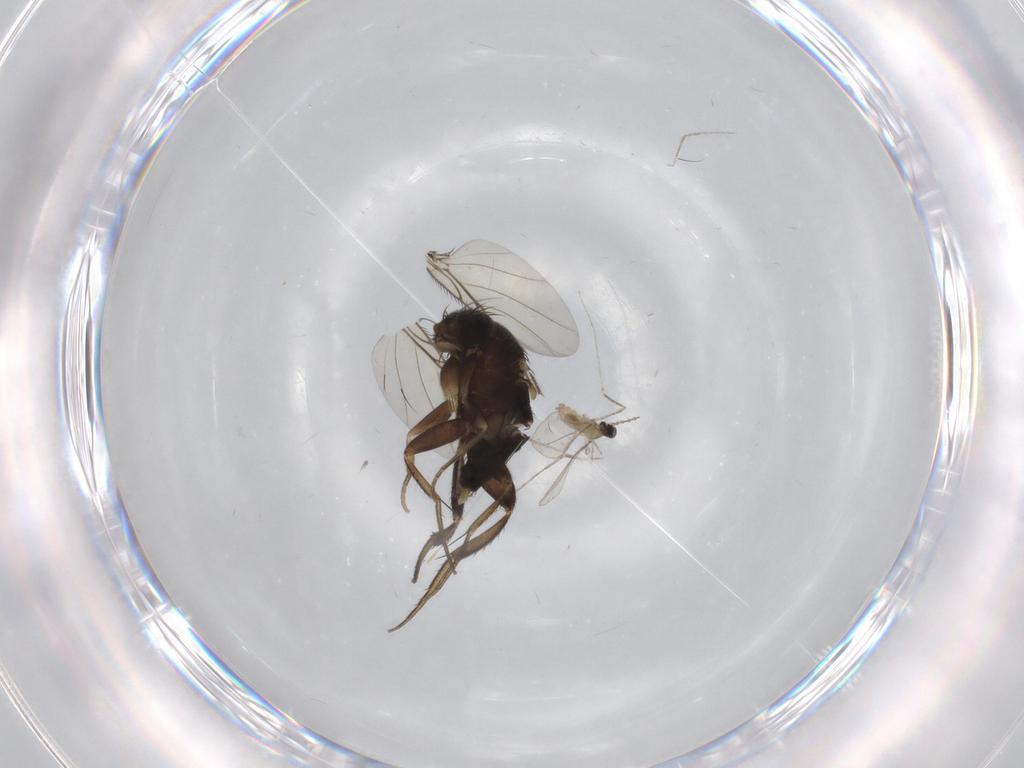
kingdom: Animalia
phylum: Arthropoda
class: Insecta
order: Diptera
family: Phoridae
